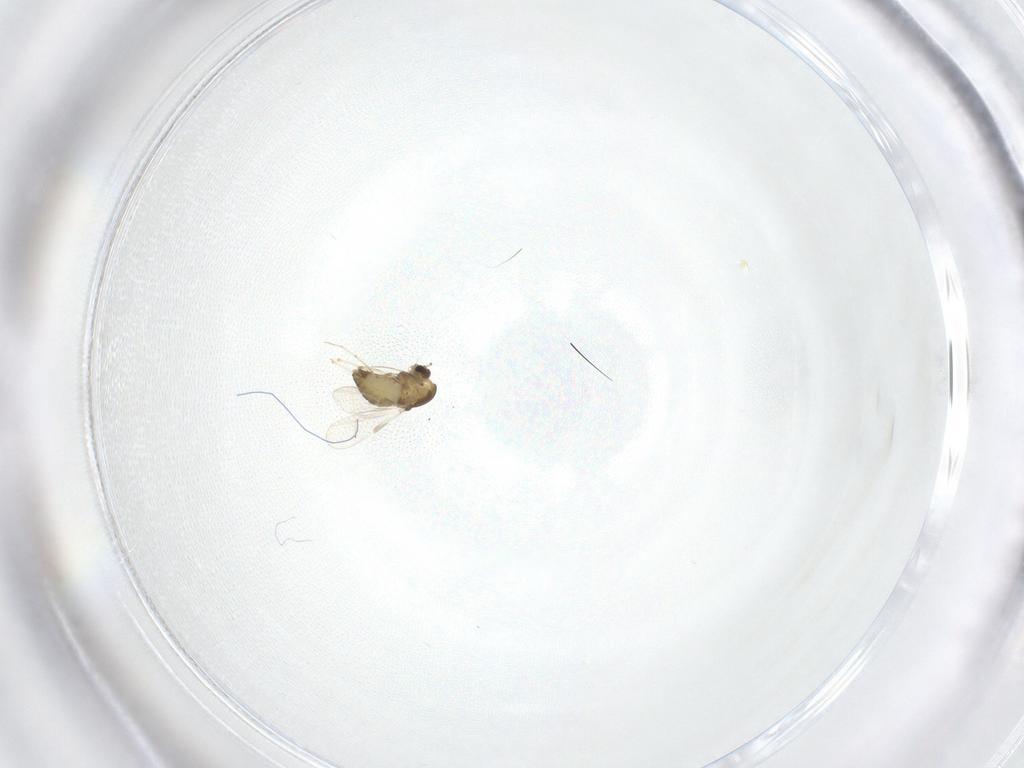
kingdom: Animalia
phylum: Arthropoda
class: Insecta
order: Diptera
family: Chironomidae
